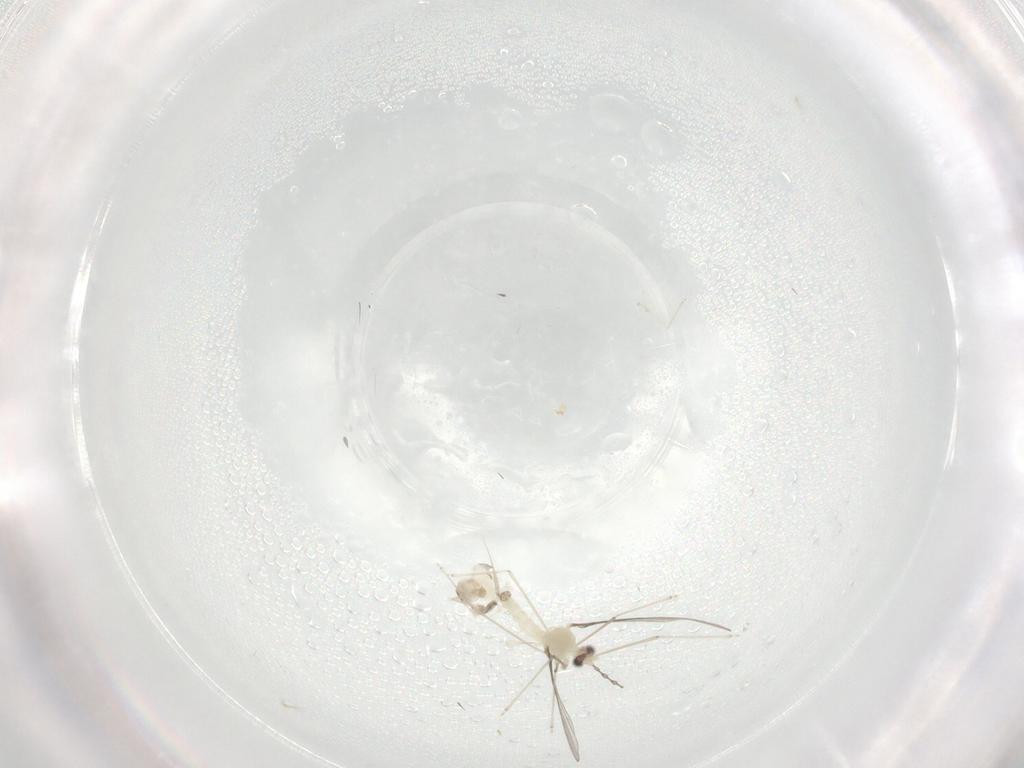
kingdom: Animalia
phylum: Arthropoda
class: Insecta
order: Diptera
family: Cecidomyiidae
